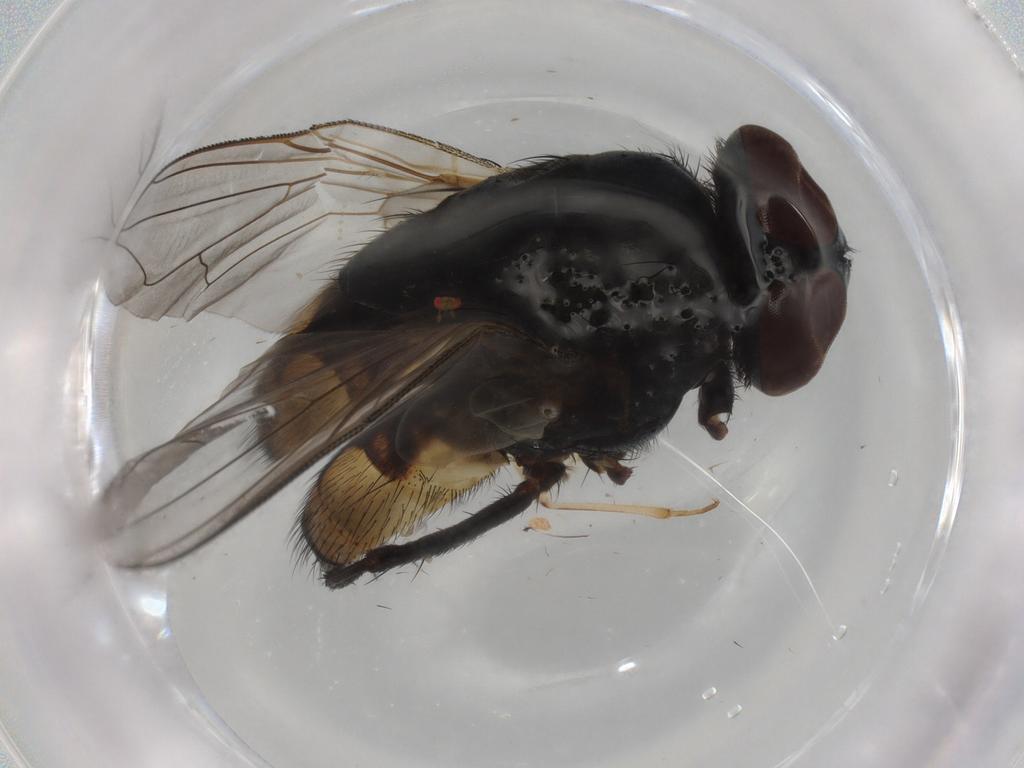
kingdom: Animalia
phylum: Arthropoda
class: Insecta
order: Diptera
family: Muscidae
